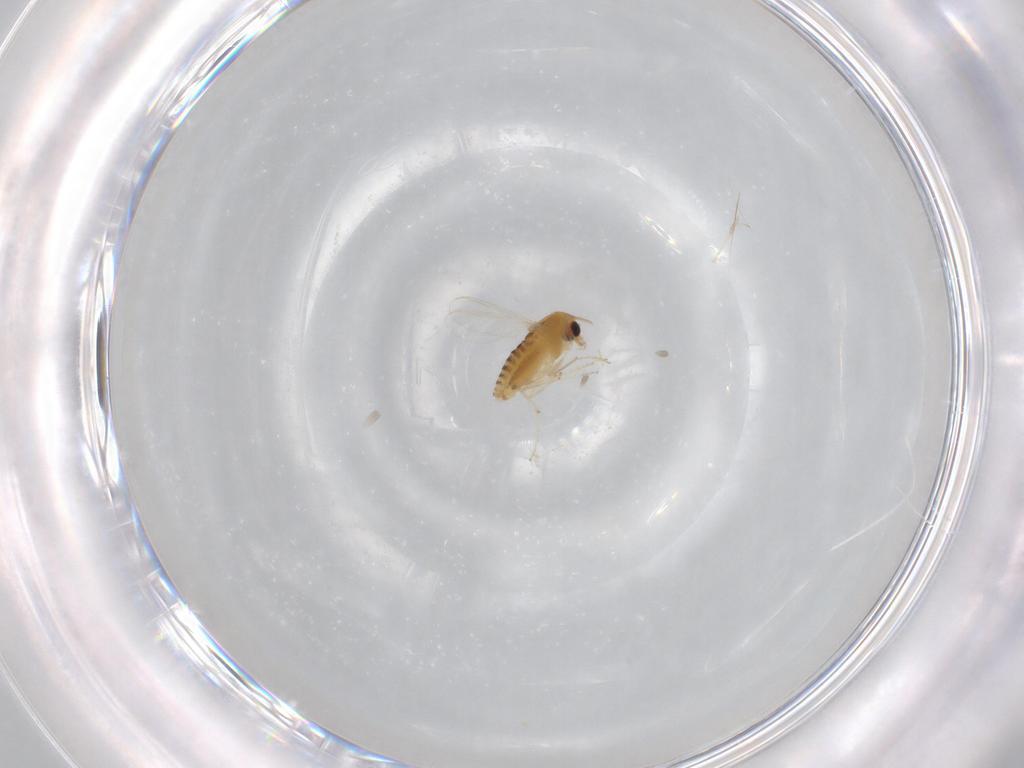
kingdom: Animalia
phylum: Arthropoda
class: Insecta
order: Diptera
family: Chironomidae
